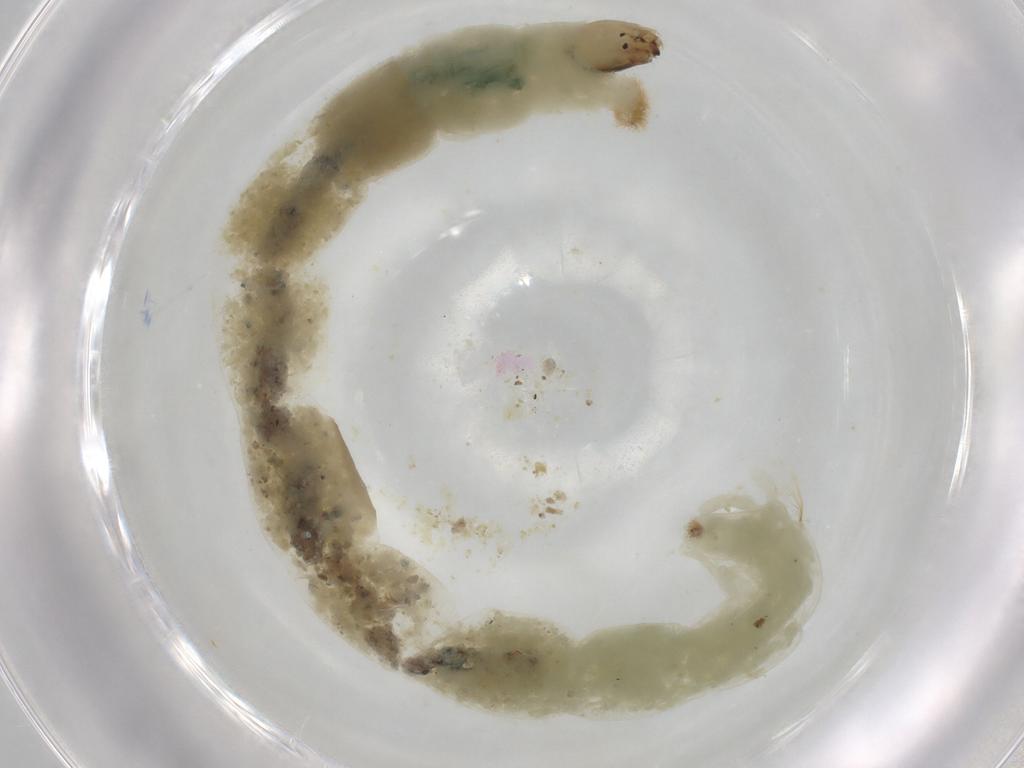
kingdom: Animalia
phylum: Arthropoda
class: Insecta
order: Diptera
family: Chironomidae
